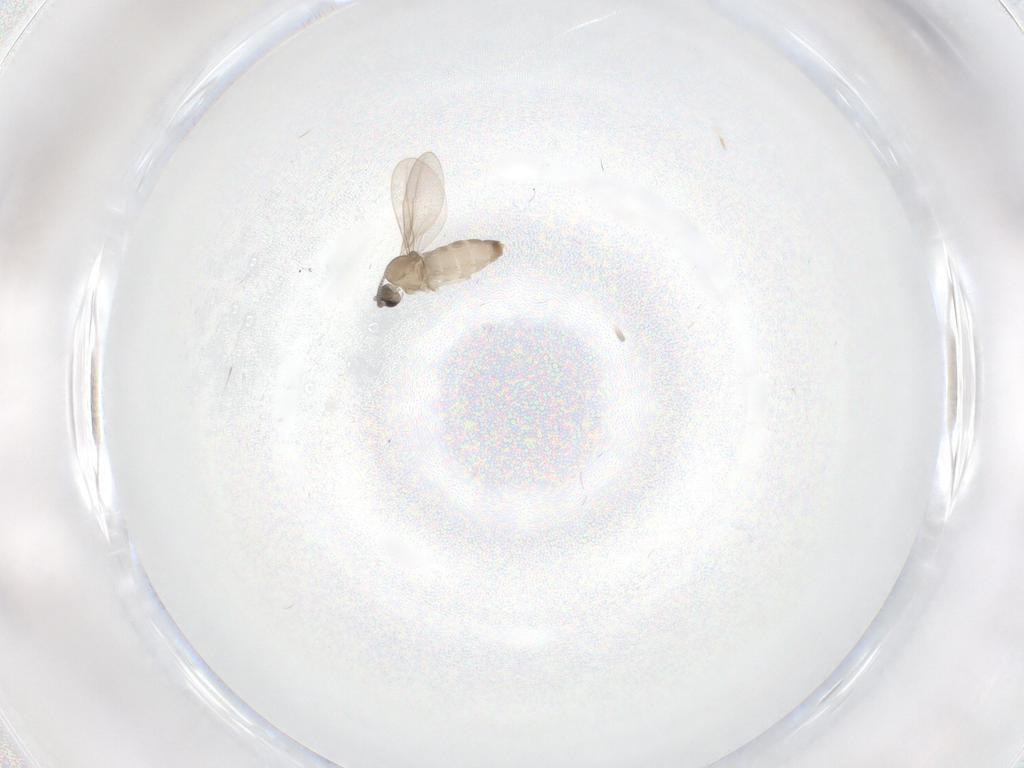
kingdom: Animalia
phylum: Arthropoda
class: Insecta
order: Diptera
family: Cecidomyiidae
